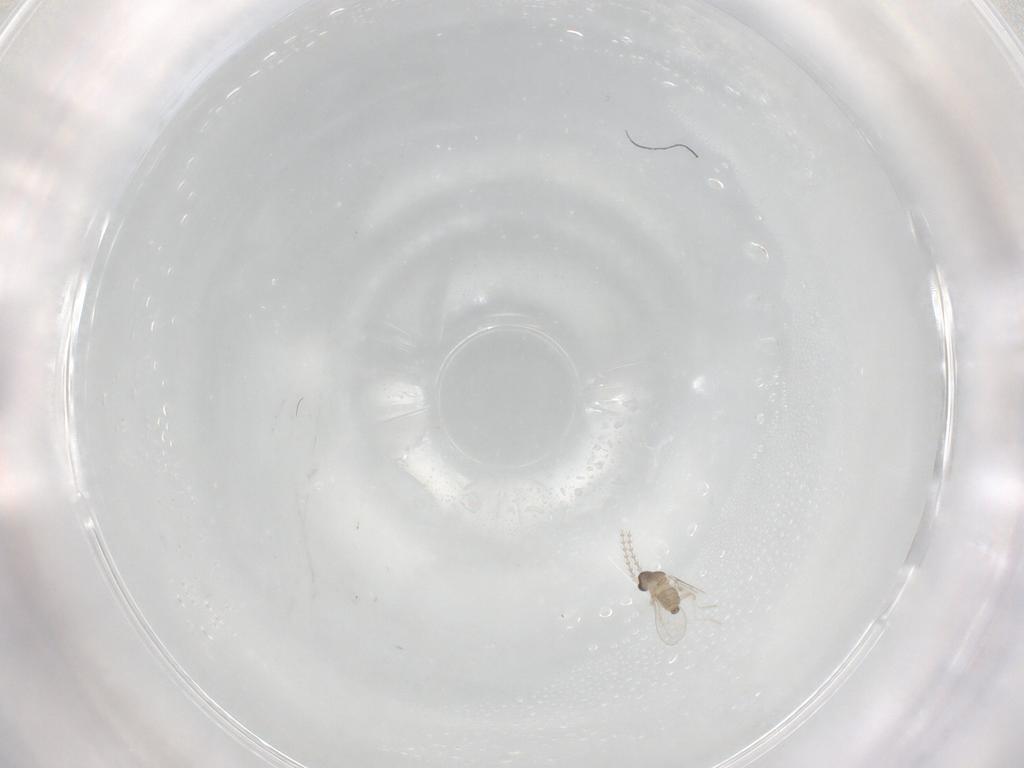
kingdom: Animalia
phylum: Arthropoda
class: Insecta
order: Diptera
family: Cecidomyiidae
